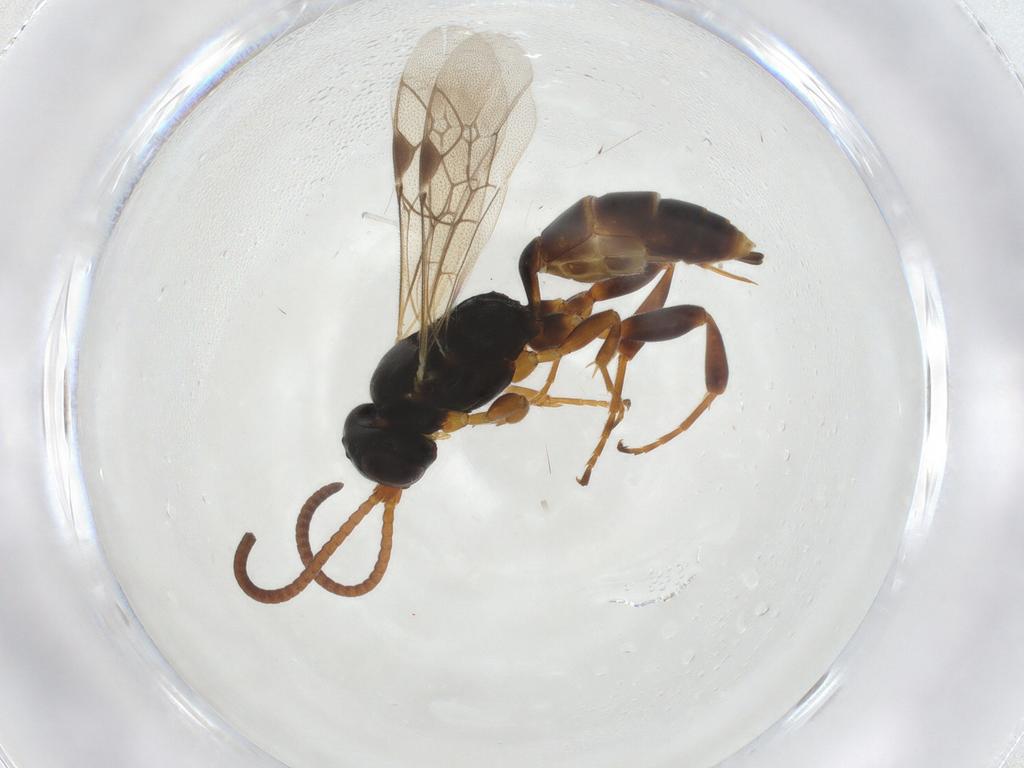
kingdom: Animalia
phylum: Arthropoda
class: Insecta
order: Hymenoptera
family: Ichneumonidae
